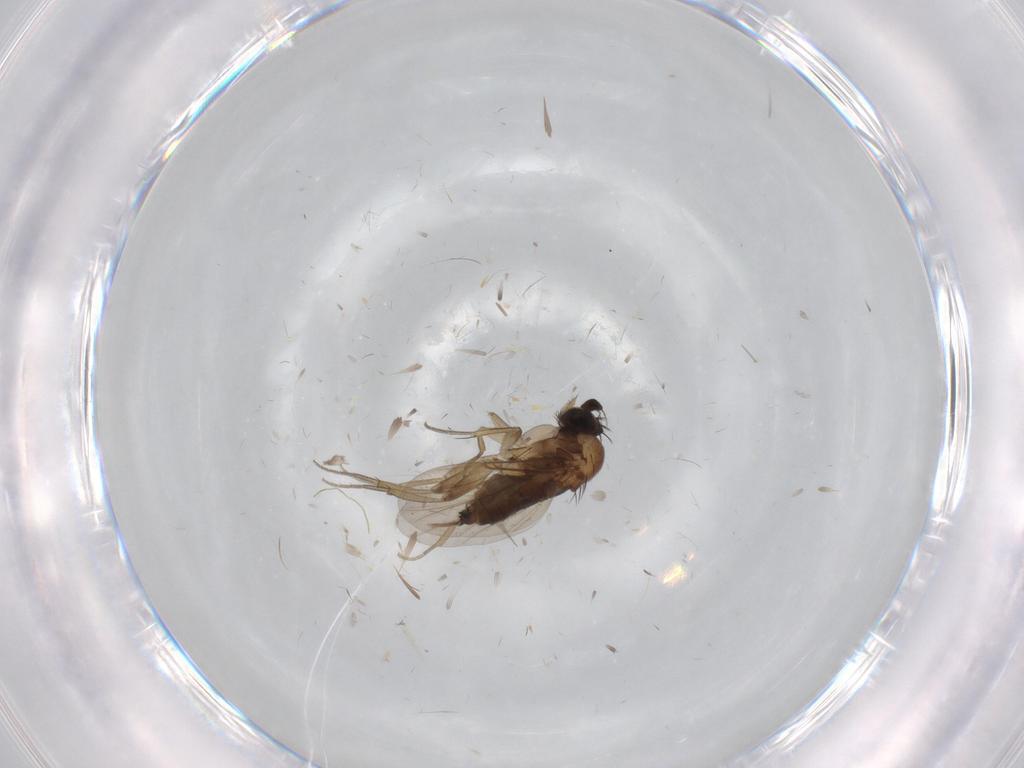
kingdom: Animalia
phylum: Arthropoda
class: Insecta
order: Diptera
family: Phoridae
